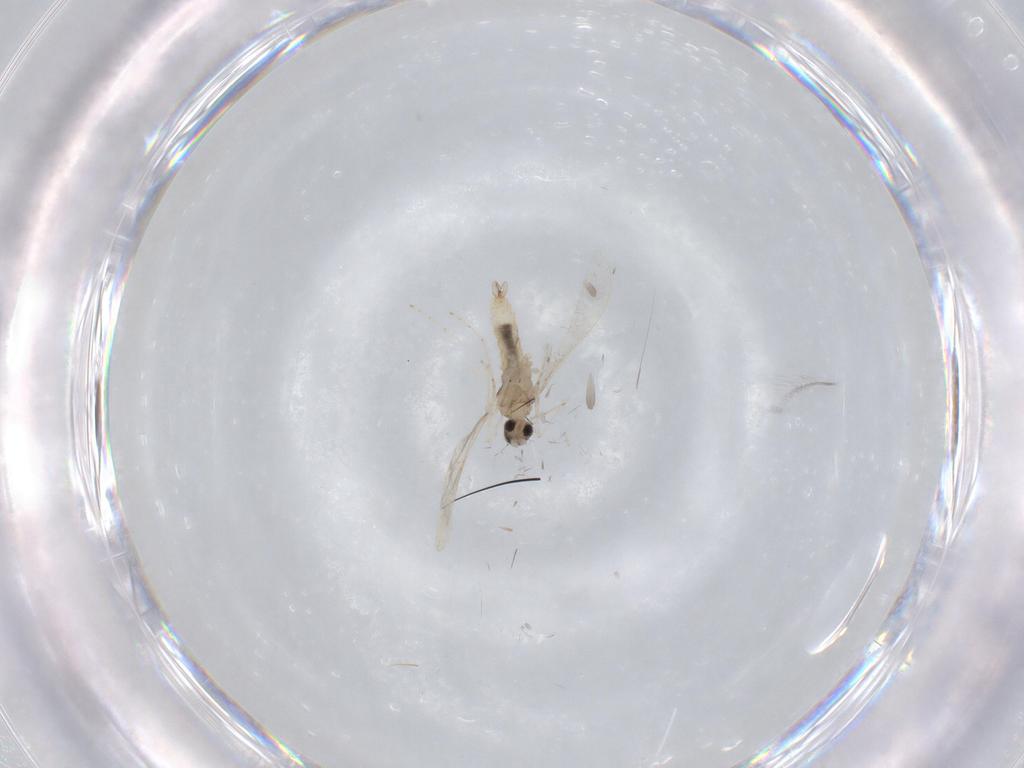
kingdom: Animalia
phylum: Arthropoda
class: Insecta
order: Diptera
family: Cecidomyiidae
